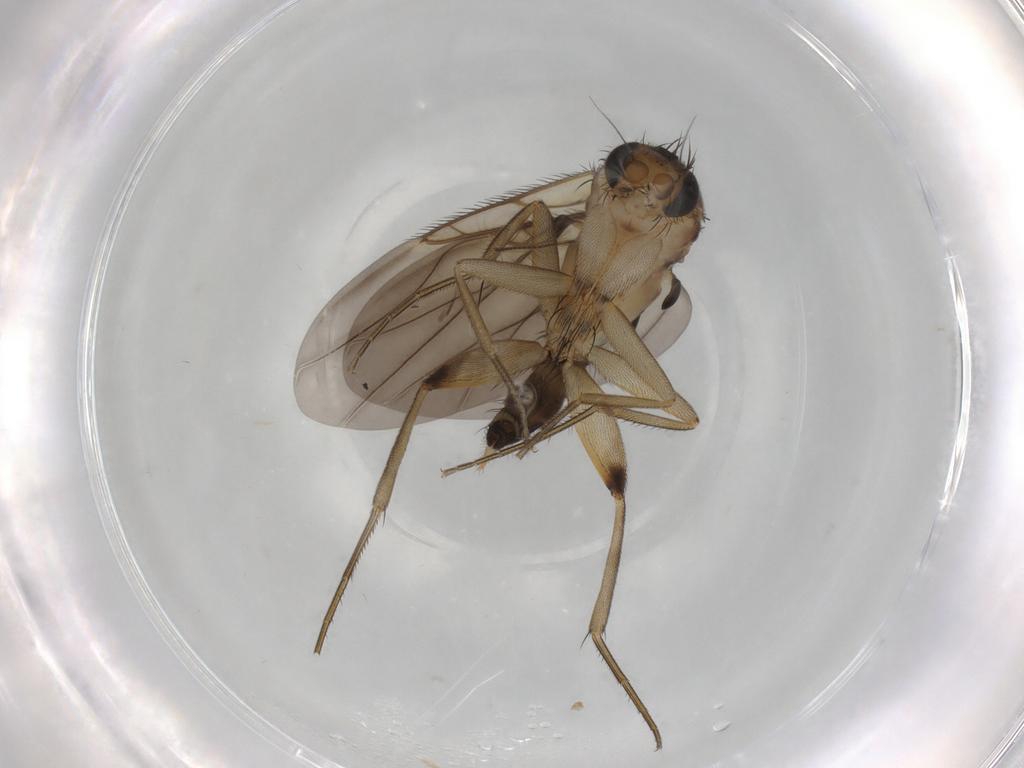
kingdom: Animalia
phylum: Arthropoda
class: Insecta
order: Diptera
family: Phoridae
